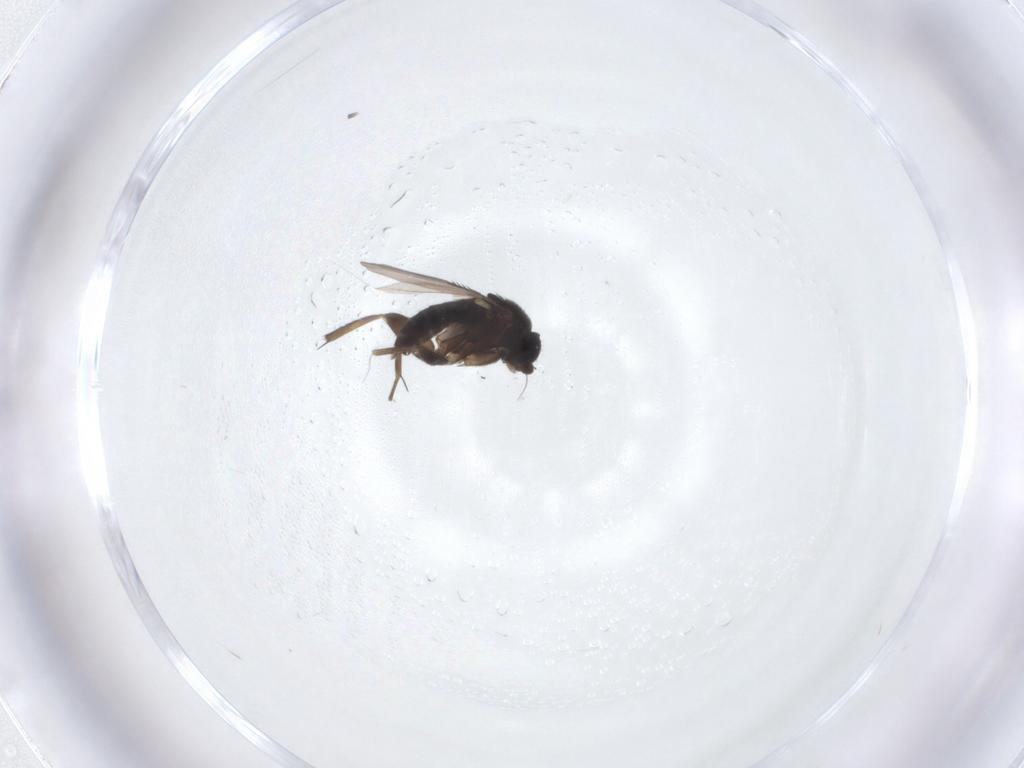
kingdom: Animalia
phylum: Arthropoda
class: Insecta
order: Diptera
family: Phoridae
